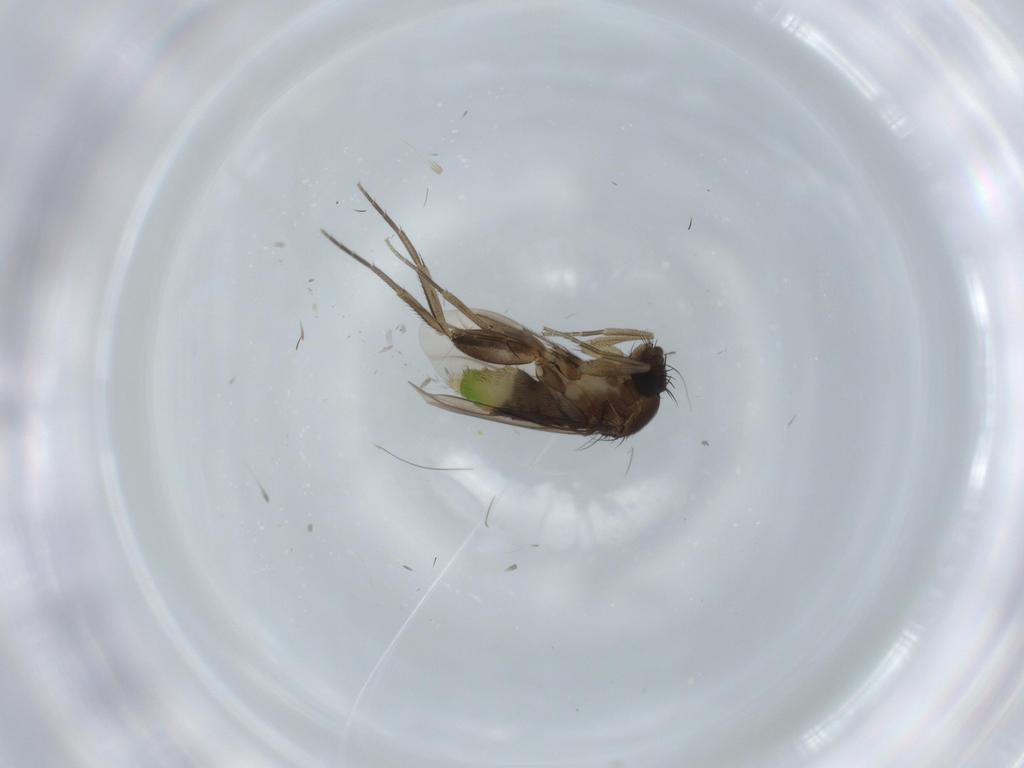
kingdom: Animalia
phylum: Arthropoda
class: Insecta
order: Diptera
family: Phoridae
